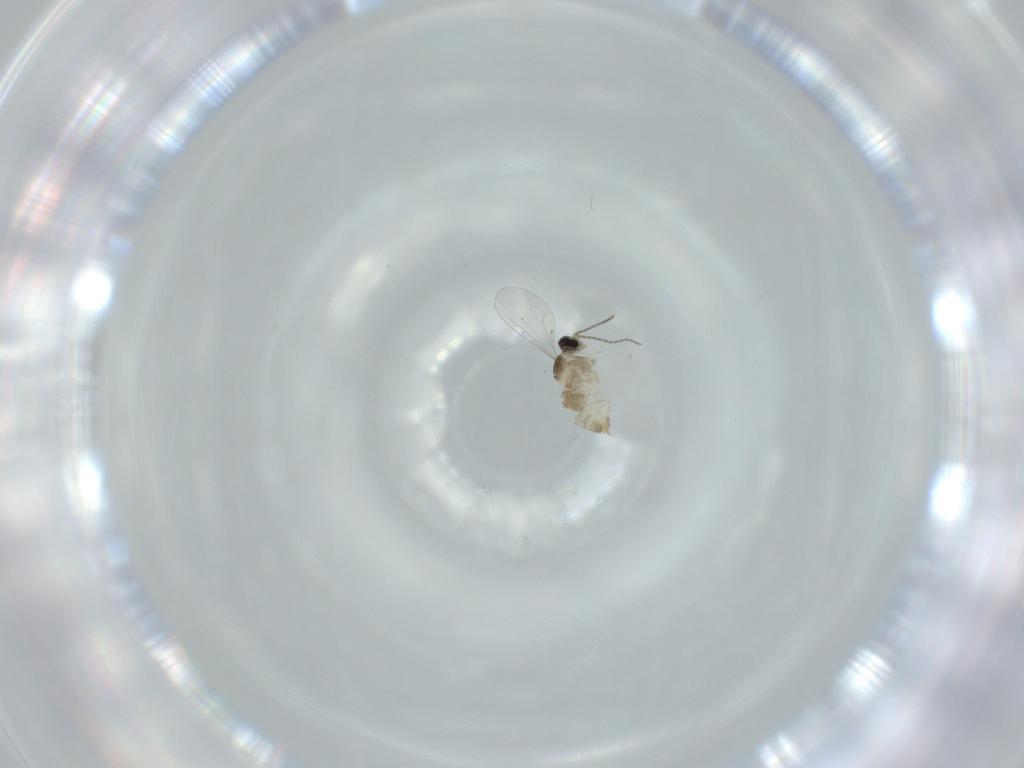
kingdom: Animalia
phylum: Arthropoda
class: Insecta
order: Diptera
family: Cecidomyiidae
